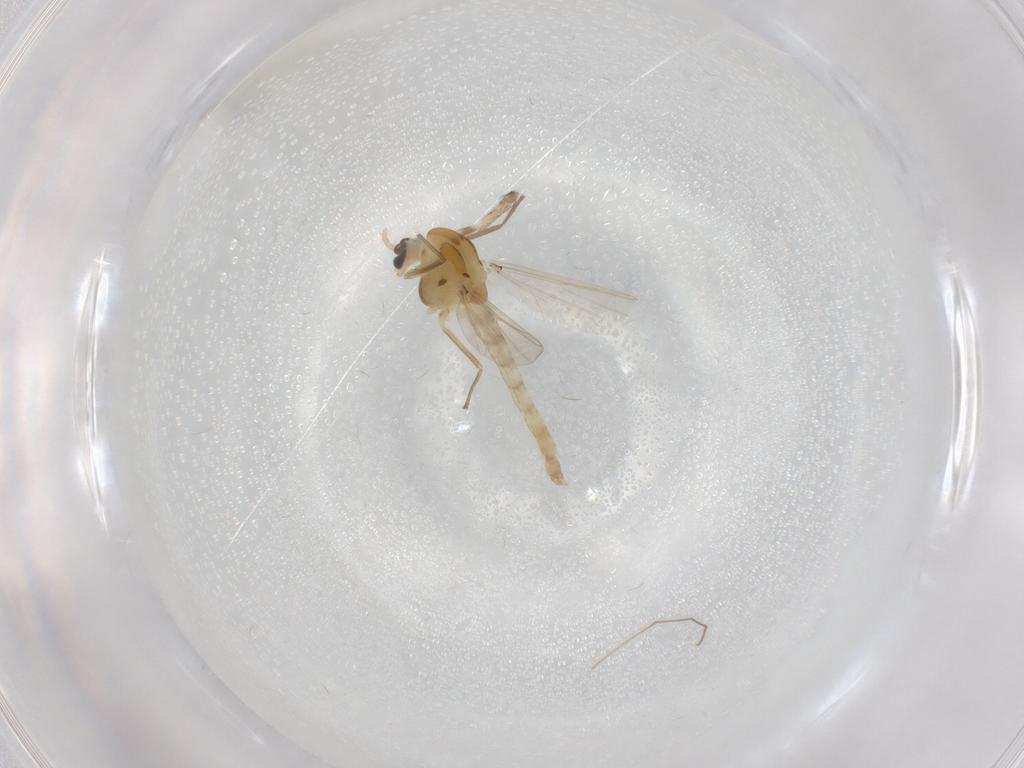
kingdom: Animalia
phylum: Arthropoda
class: Insecta
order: Diptera
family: Chironomidae
